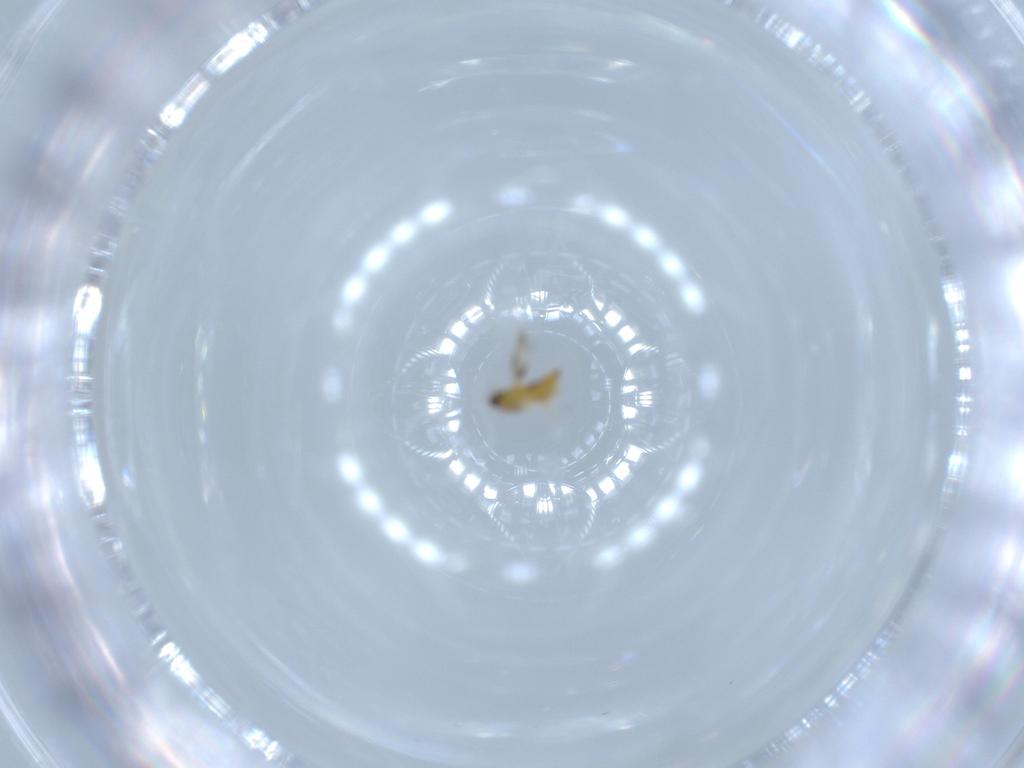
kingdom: Animalia
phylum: Arthropoda
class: Insecta
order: Hymenoptera
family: Signiphoridae
